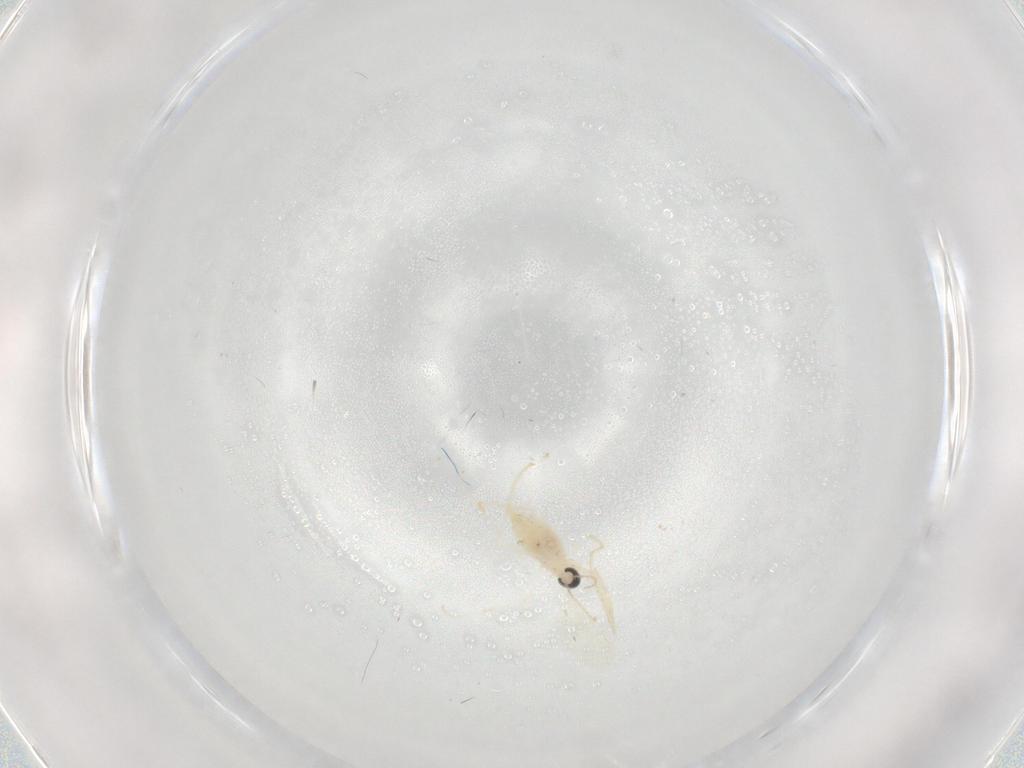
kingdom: Animalia
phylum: Arthropoda
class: Insecta
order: Diptera
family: Cecidomyiidae
